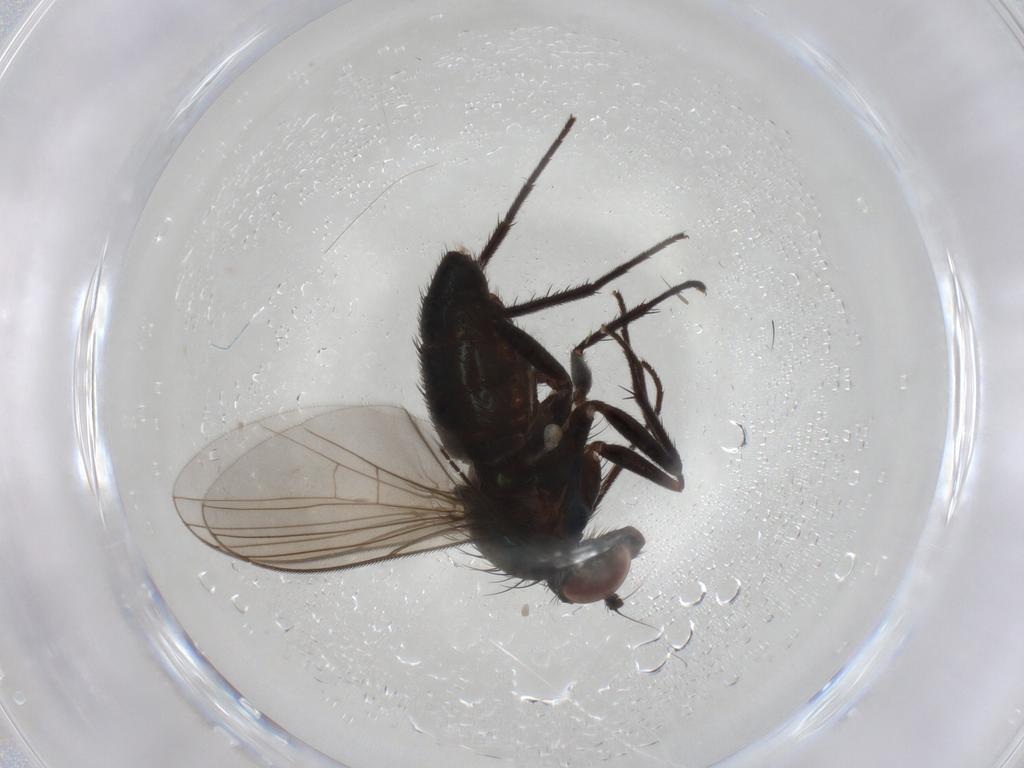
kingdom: Animalia
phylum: Arthropoda
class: Insecta
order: Diptera
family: Dolichopodidae
